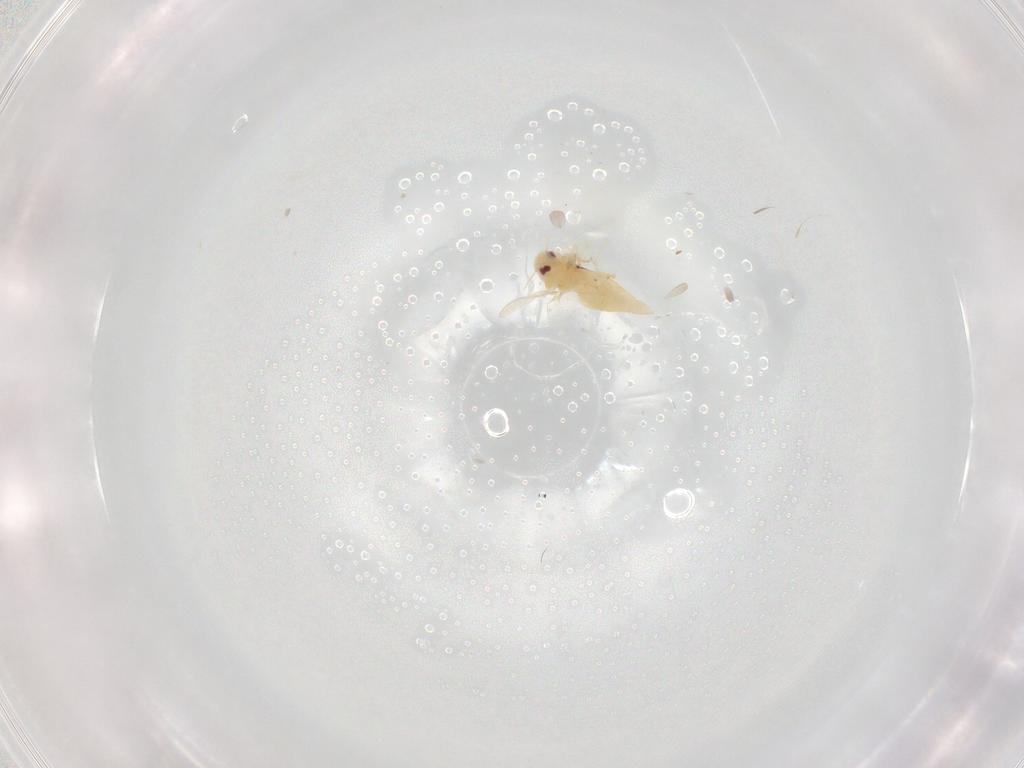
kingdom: Animalia
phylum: Arthropoda
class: Insecta
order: Hemiptera
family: Aleyrodidae
